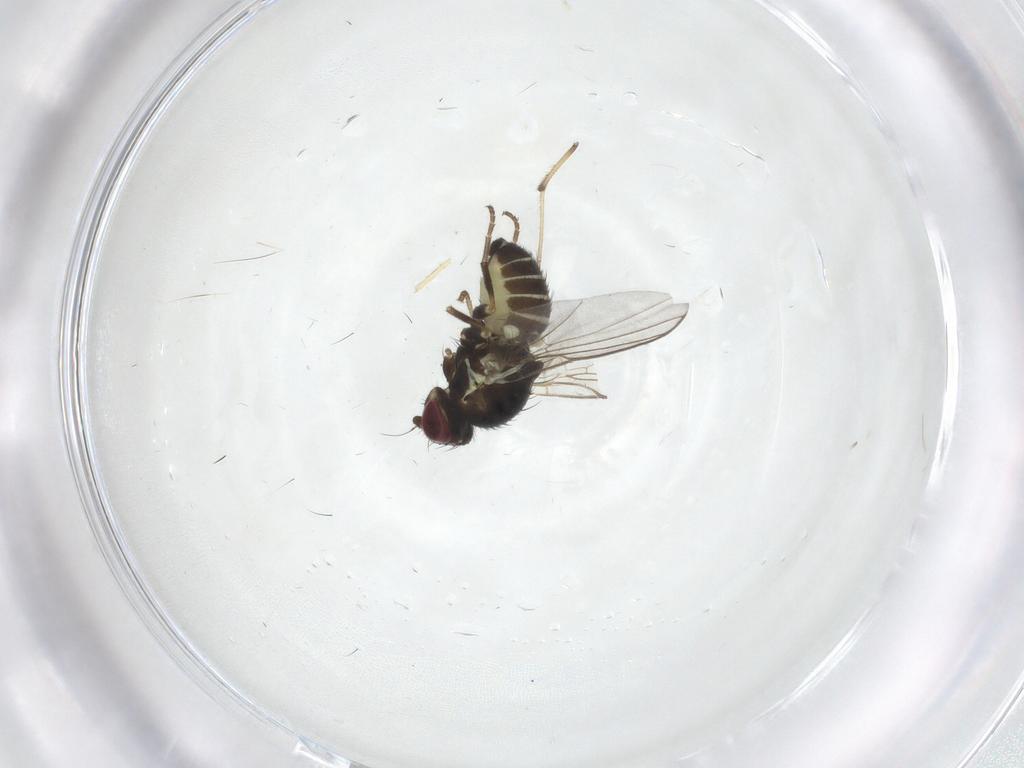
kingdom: Animalia
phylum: Arthropoda
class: Insecta
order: Diptera
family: Agromyzidae
